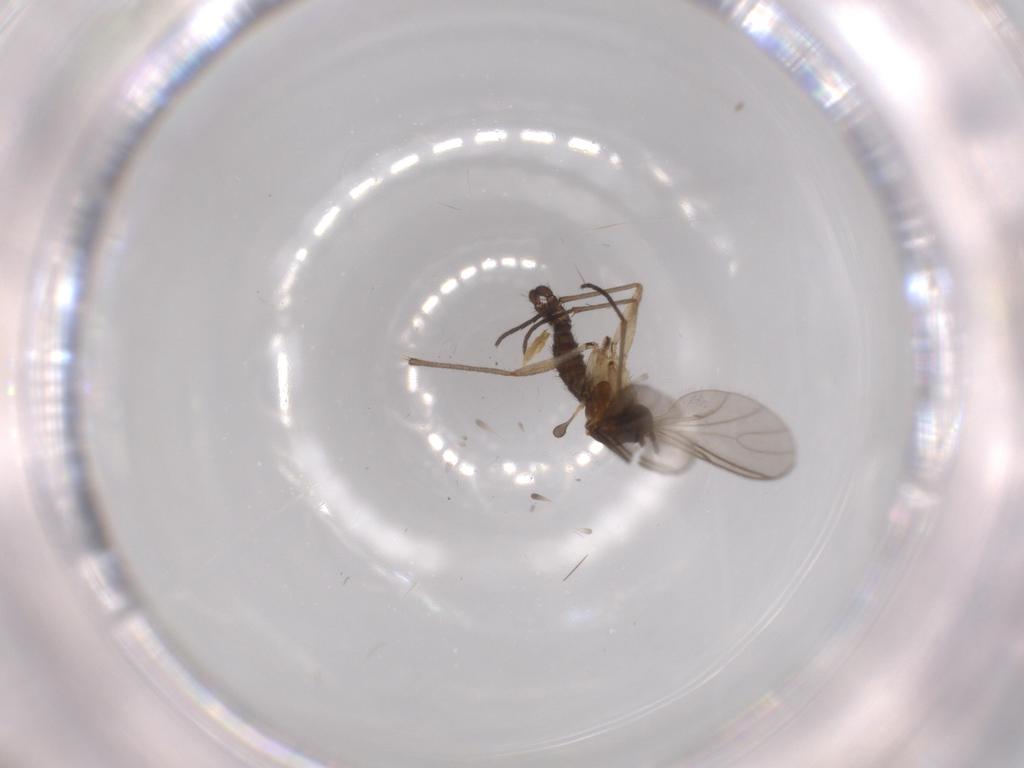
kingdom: Animalia
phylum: Arthropoda
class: Insecta
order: Diptera
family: Sciaridae
